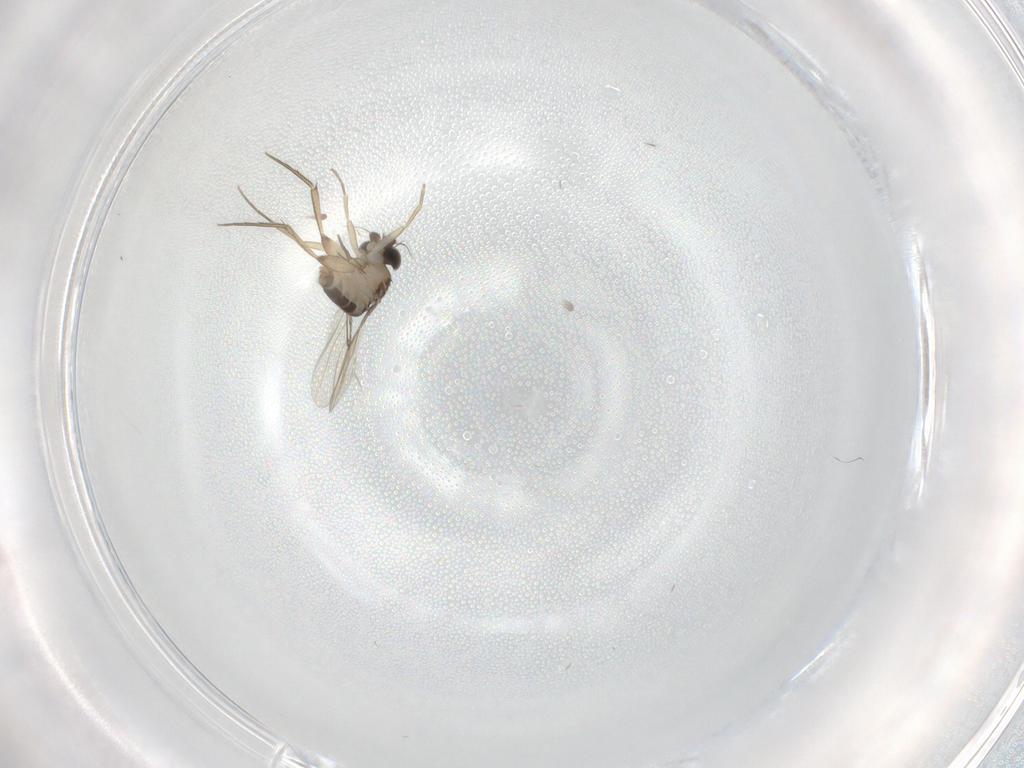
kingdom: Animalia
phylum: Arthropoda
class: Insecta
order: Diptera
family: Phoridae
